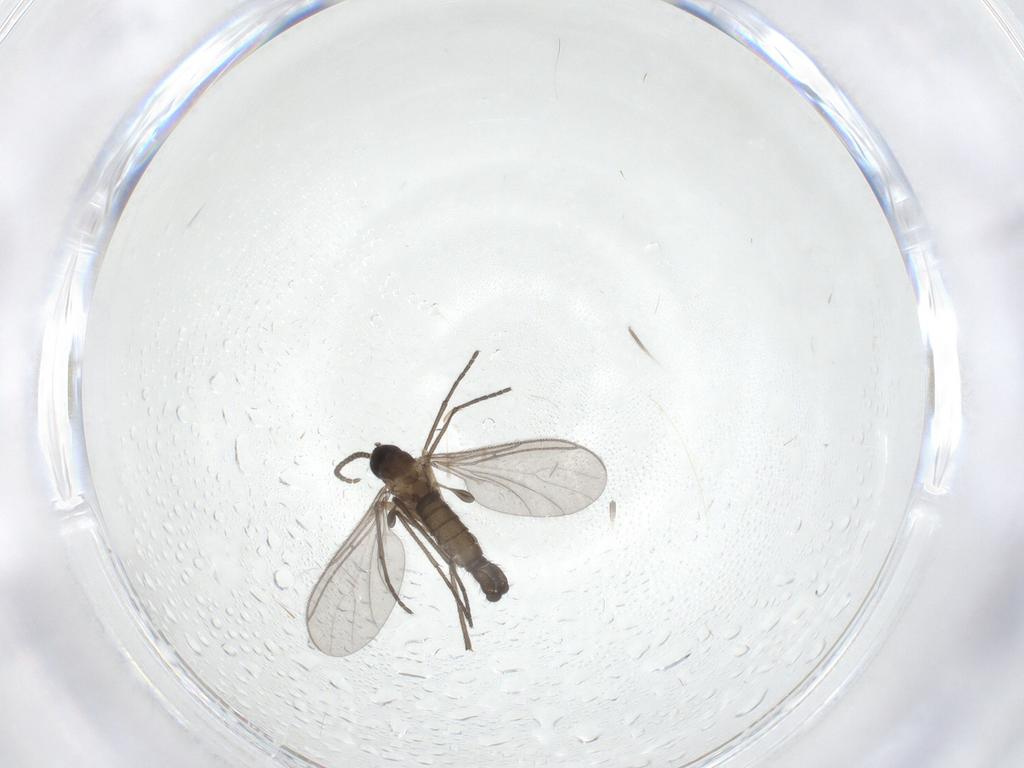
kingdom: Animalia
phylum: Arthropoda
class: Insecta
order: Diptera
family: Sciaridae
